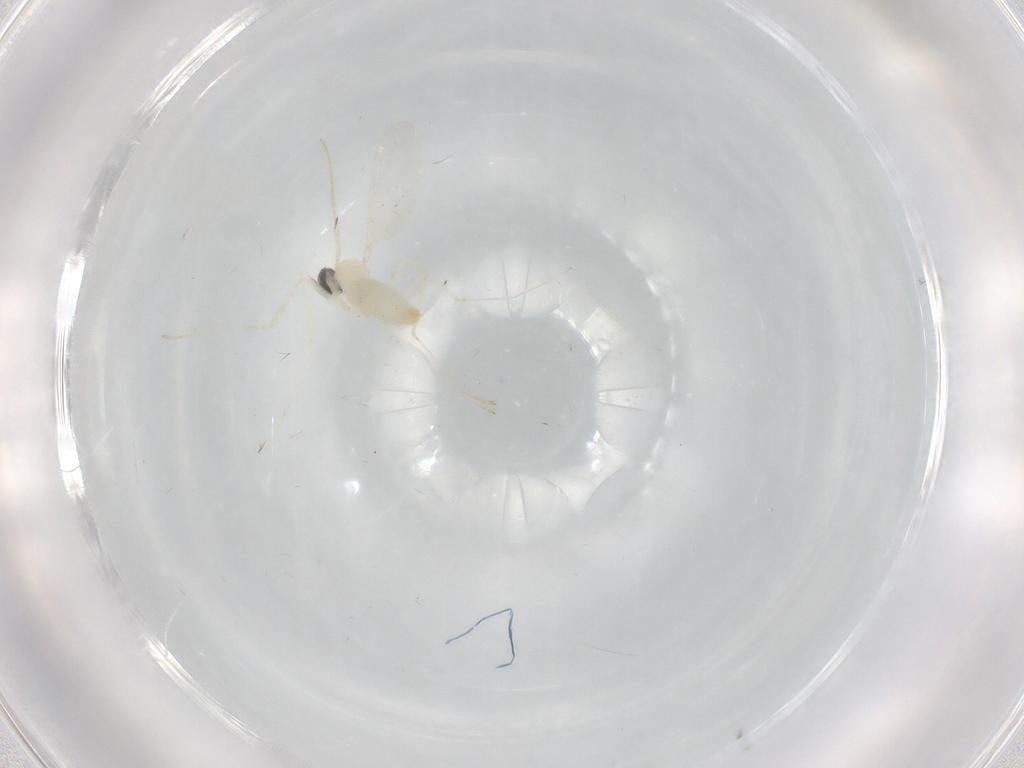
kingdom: Animalia
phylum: Arthropoda
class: Insecta
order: Diptera
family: Cecidomyiidae
